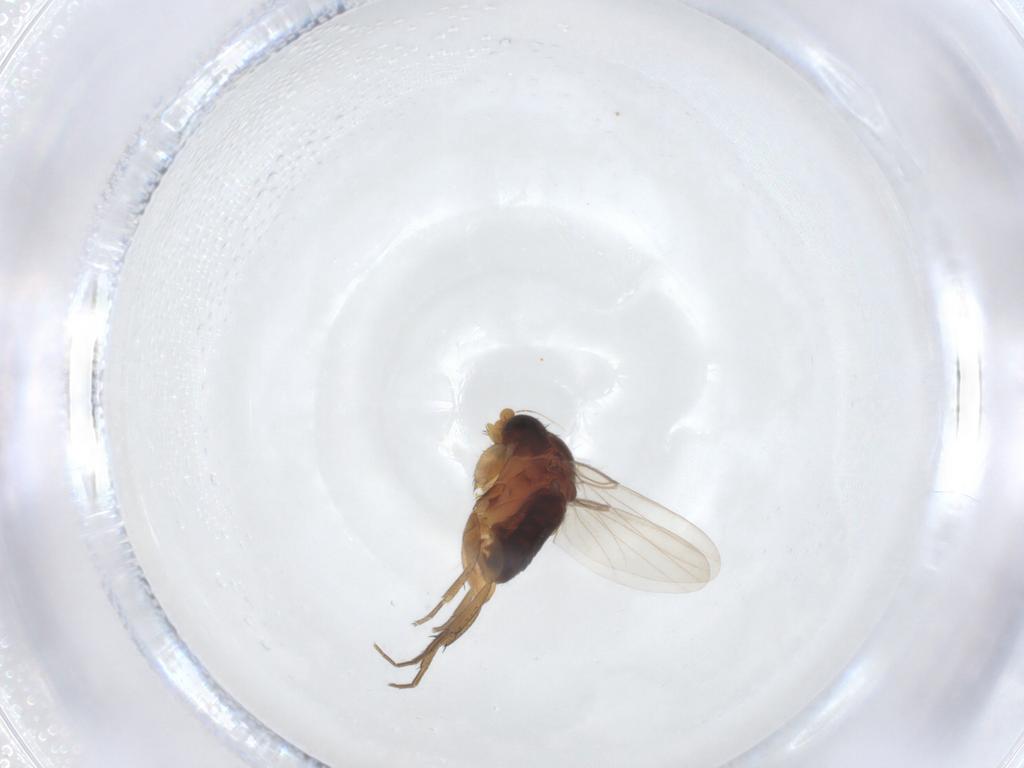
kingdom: Animalia
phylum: Arthropoda
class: Insecta
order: Diptera
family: Phoridae
